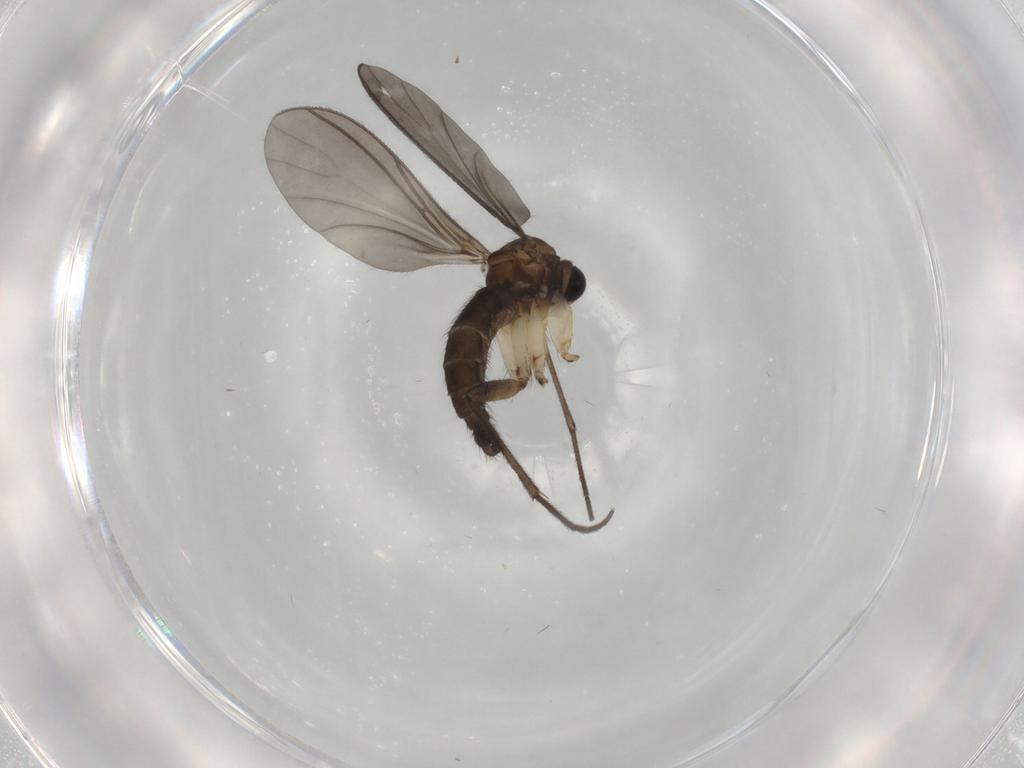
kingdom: Animalia
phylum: Arthropoda
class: Insecta
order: Diptera
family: Sciaridae
